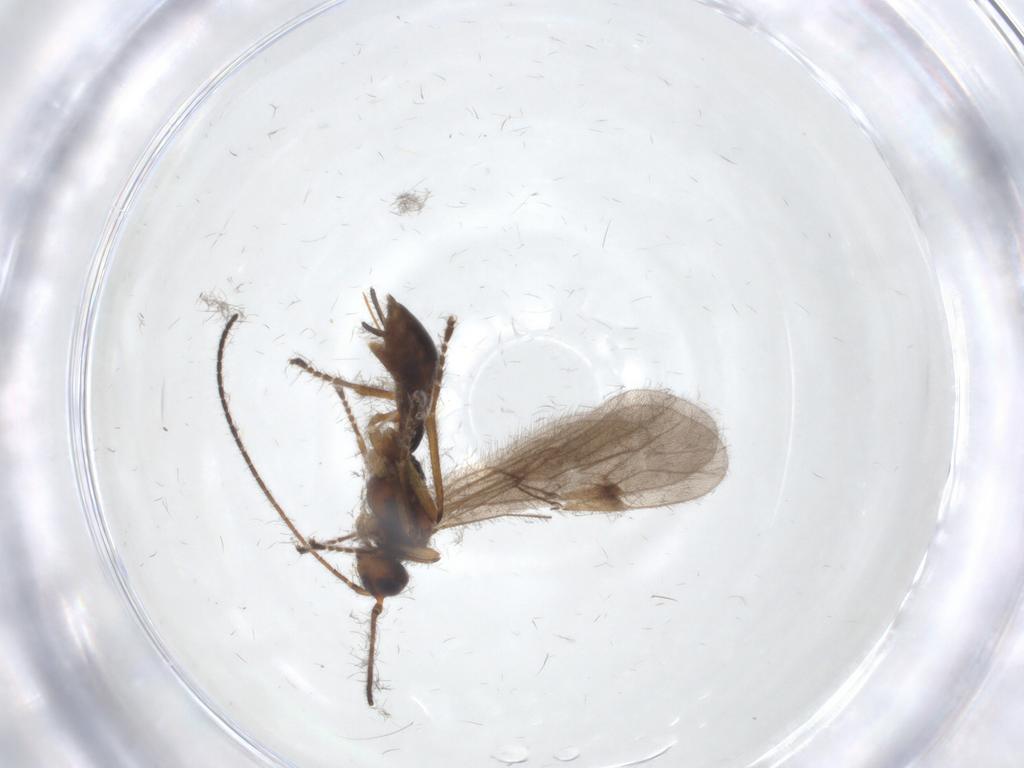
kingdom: Animalia
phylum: Arthropoda
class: Insecta
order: Hymenoptera
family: Braconidae
